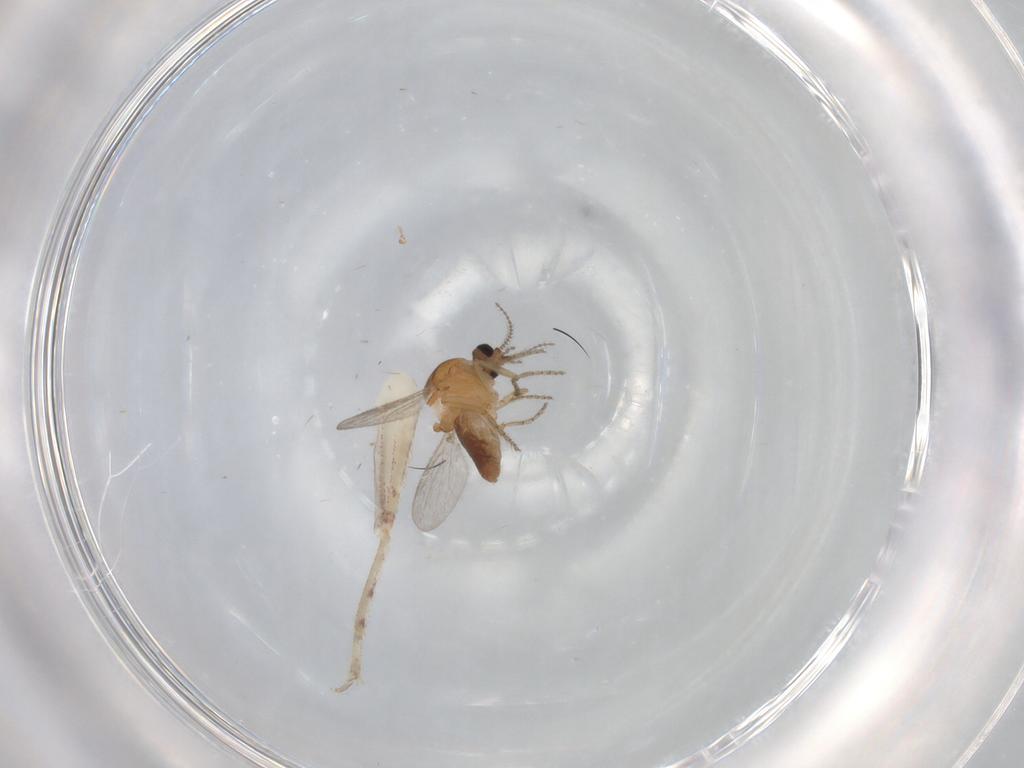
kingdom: Animalia
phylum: Arthropoda
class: Insecta
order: Diptera
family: Ceratopogonidae
